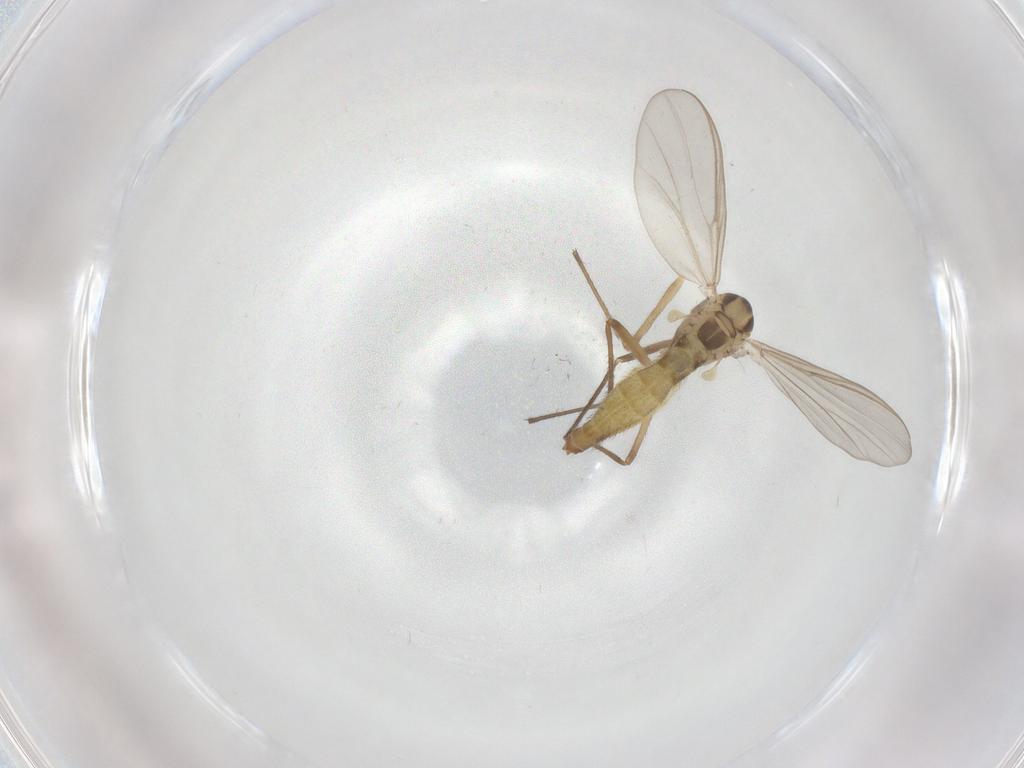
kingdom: Animalia
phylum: Arthropoda
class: Insecta
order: Diptera
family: Chironomidae
